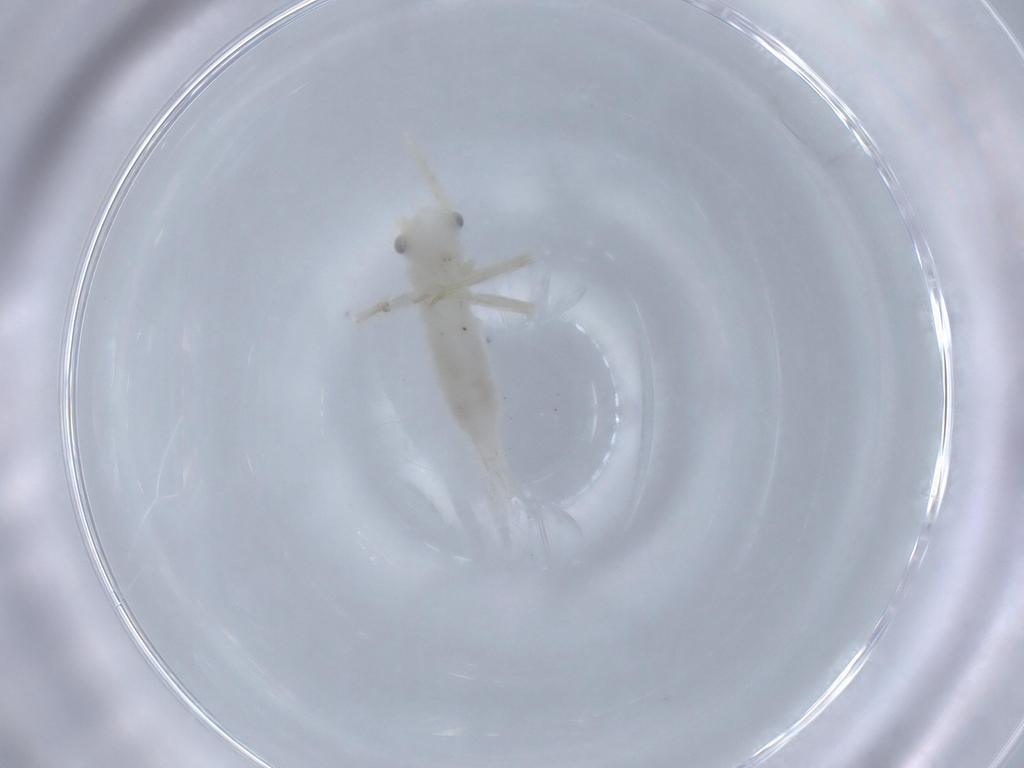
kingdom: Animalia
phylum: Arthropoda
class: Insecta
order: Orthoptera
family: Trigonidiidae
